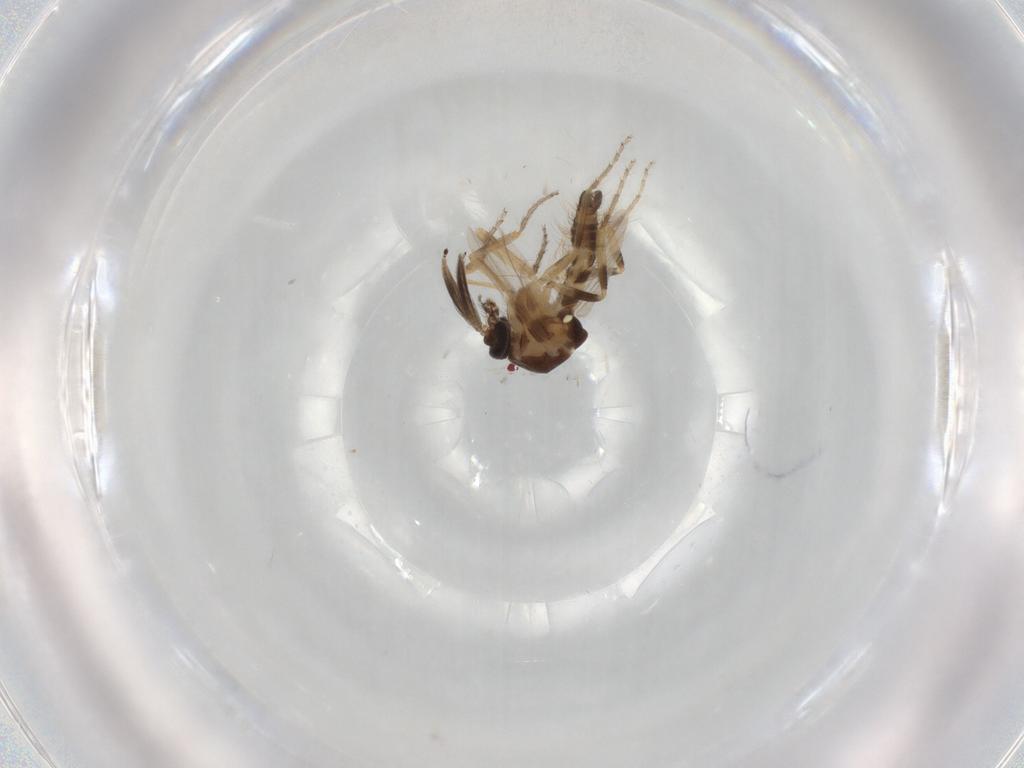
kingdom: Animalia
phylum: Arthropoda
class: Insecta
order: Diptera
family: Ceratopogonidae
